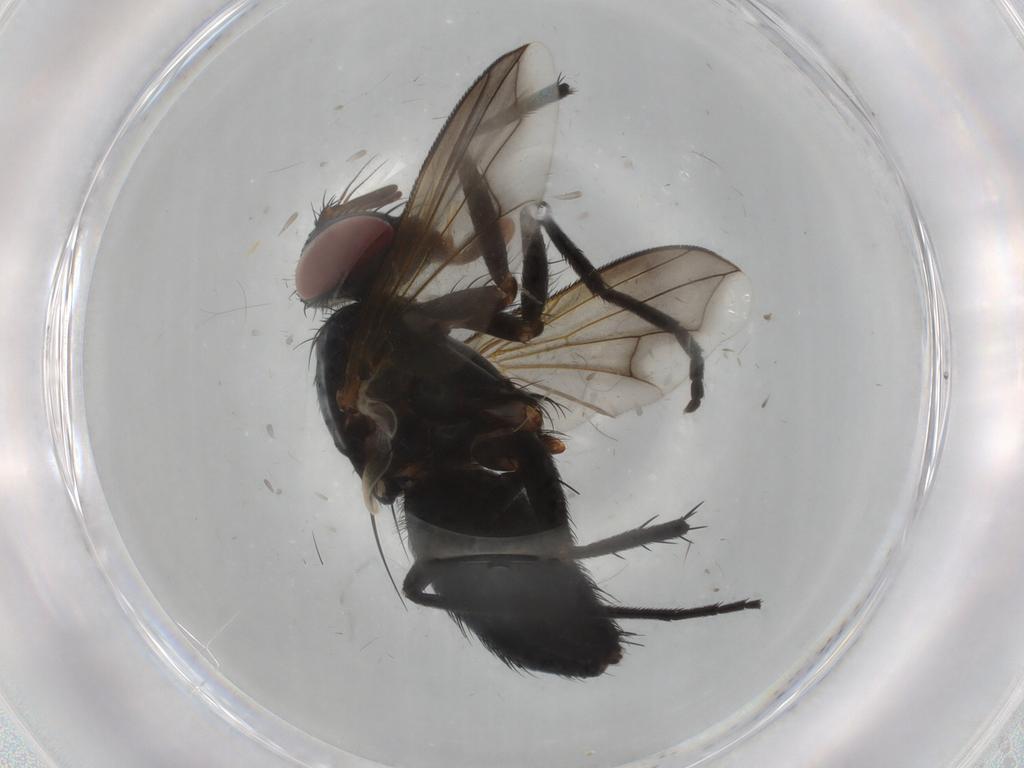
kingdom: Animalia
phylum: Arthropoda
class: Insecta
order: Diptera
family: Tachinidae
